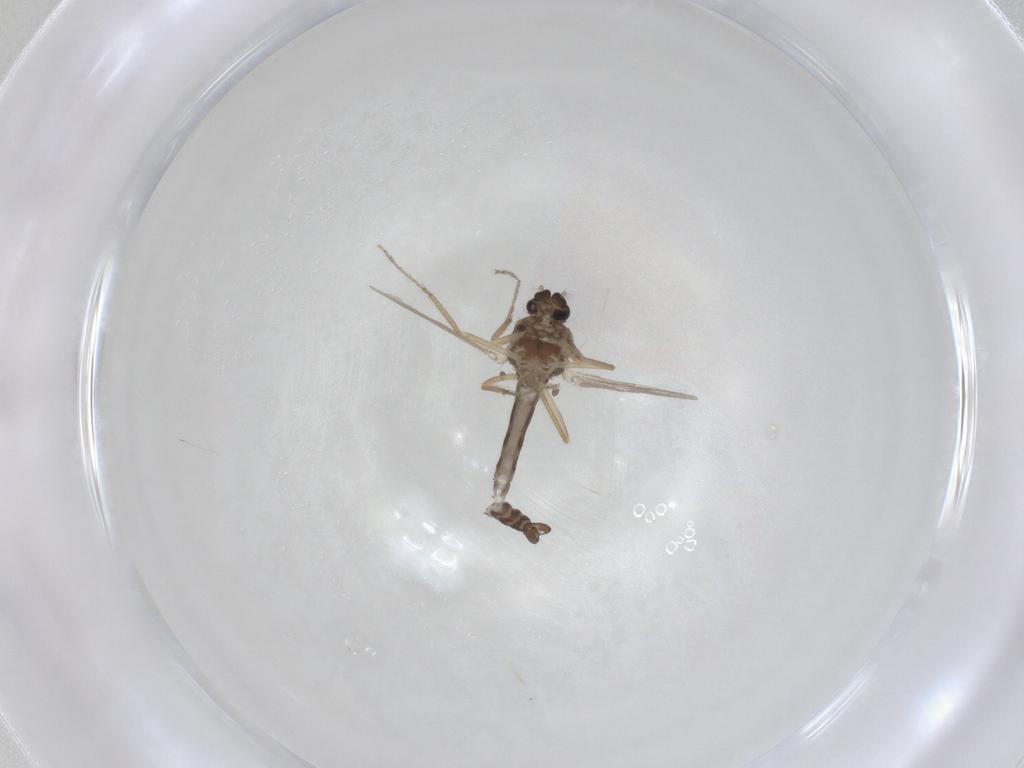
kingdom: Animalia
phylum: Arthropoda
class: Insecta
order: Diptera
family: Ceratopogonidae
